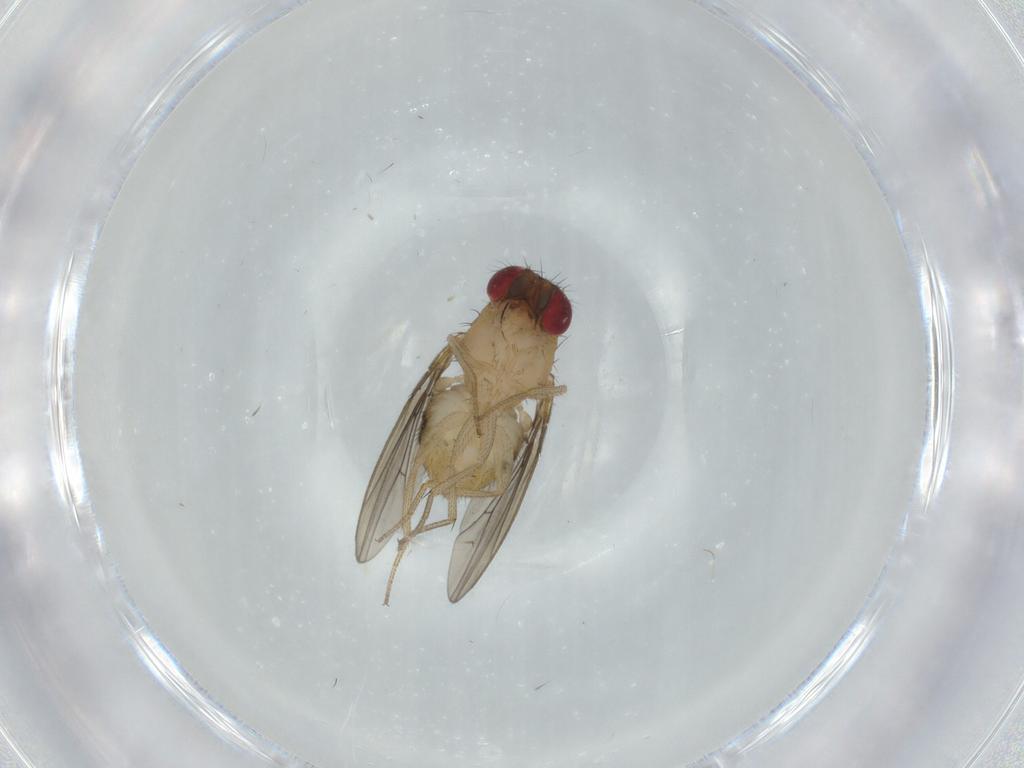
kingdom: Animalia
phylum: Arthropoda
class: Insecta
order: Diptera
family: Drosophilidae
